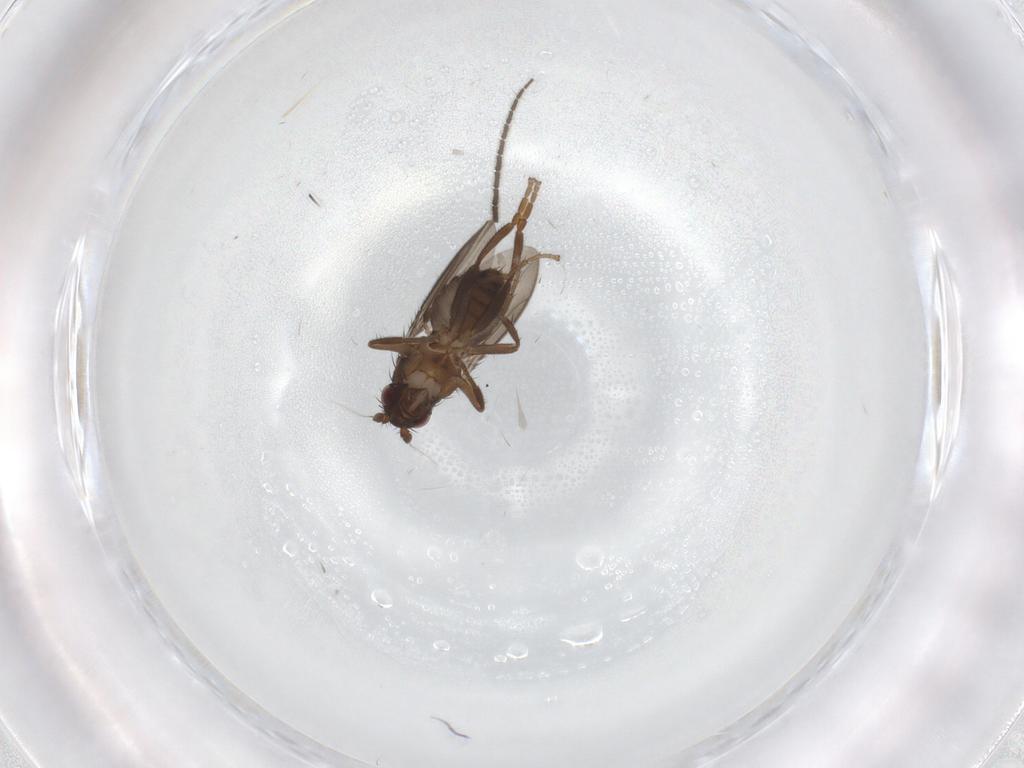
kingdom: Animalia
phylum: Arthropoda
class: Insecta
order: Diptera
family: Sphaeroceridae
